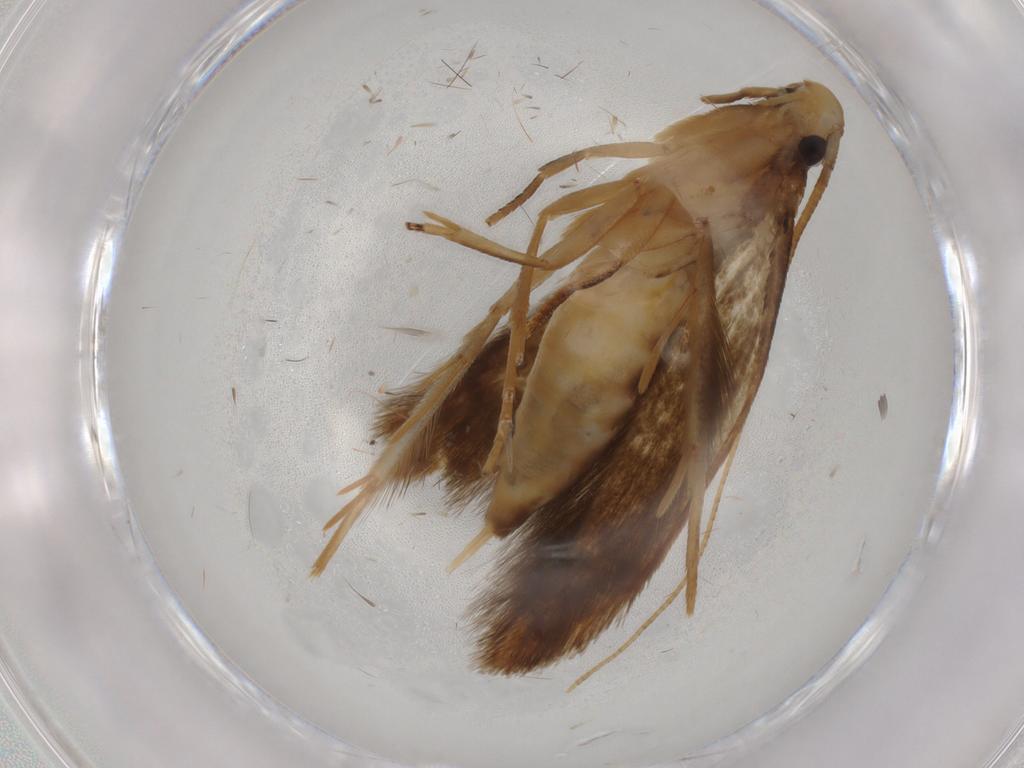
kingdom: Animalia
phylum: Arthropoda
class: Insecta
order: Lepidoptera
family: Tineidae
